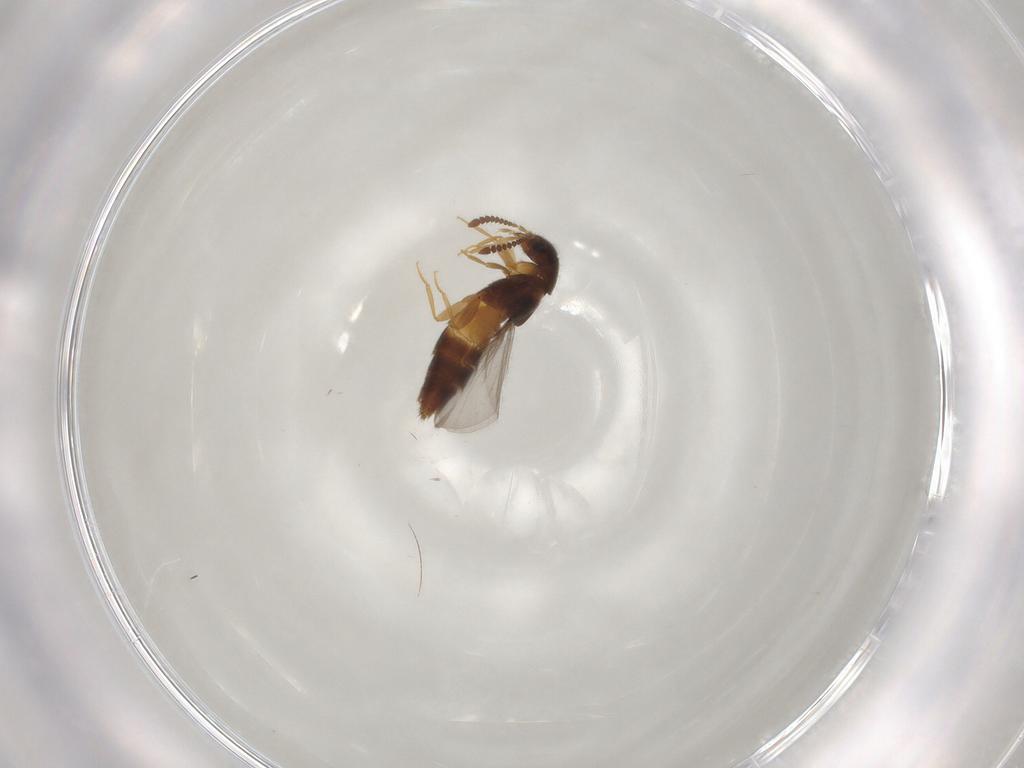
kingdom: Animalia
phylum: Arthropoda
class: Insecta
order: Coleoptera
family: Staphylinidae
